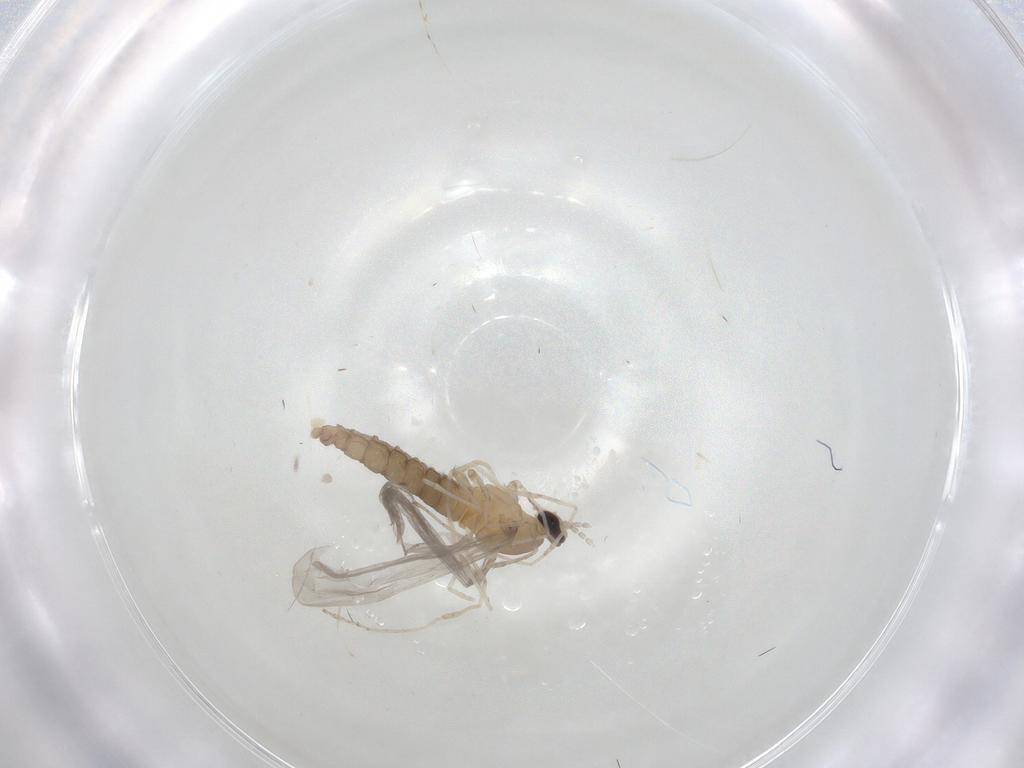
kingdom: Animalia
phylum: Arthropoda
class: Insecta
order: Diptera
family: Cecidomyiidae
